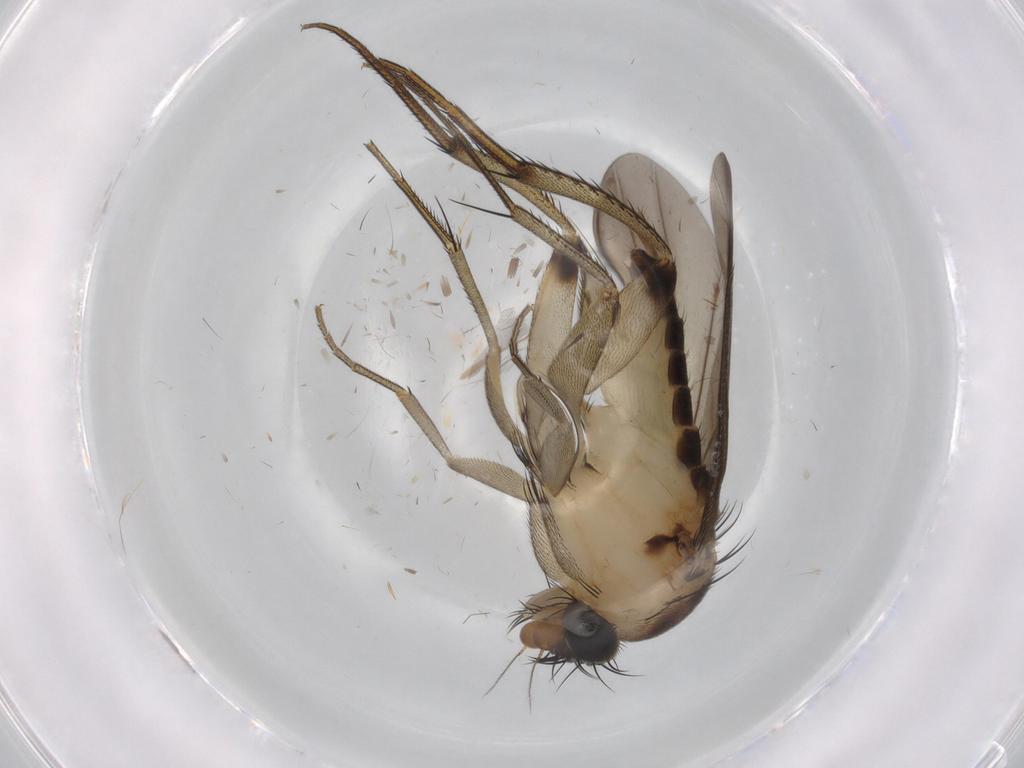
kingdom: Animalia
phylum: Arthropoda
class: Insecta
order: Diptera
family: Phoridae
